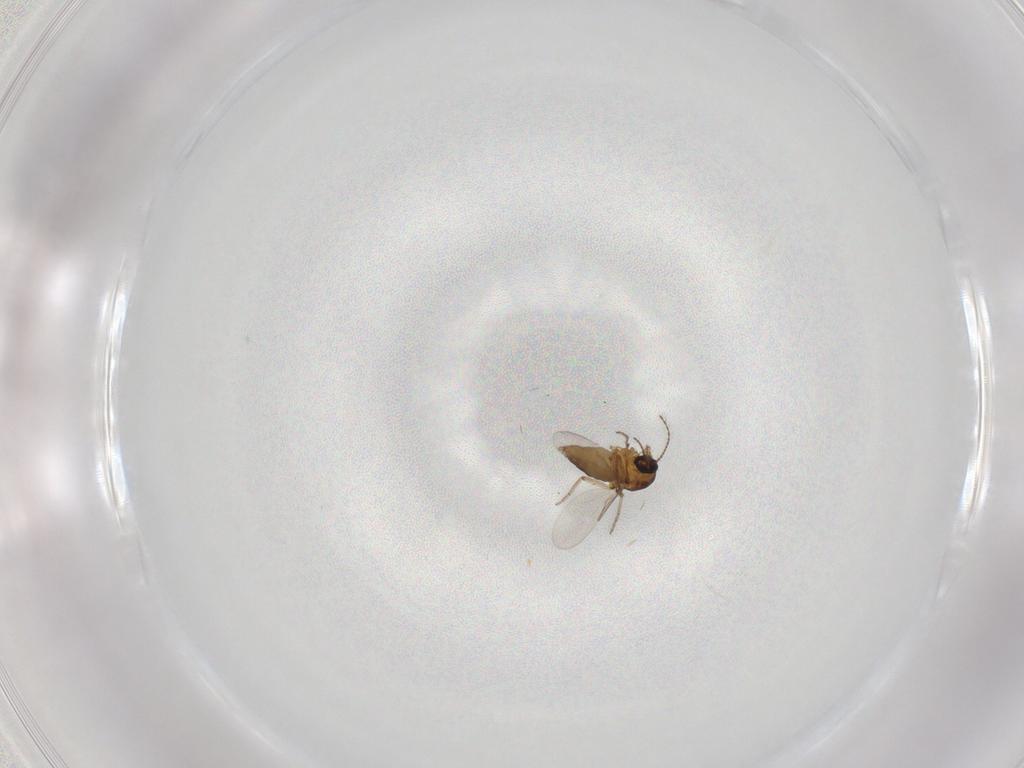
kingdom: Animalia
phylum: Arthropoda
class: Insecta
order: Diptera
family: Ceratopogonidae
